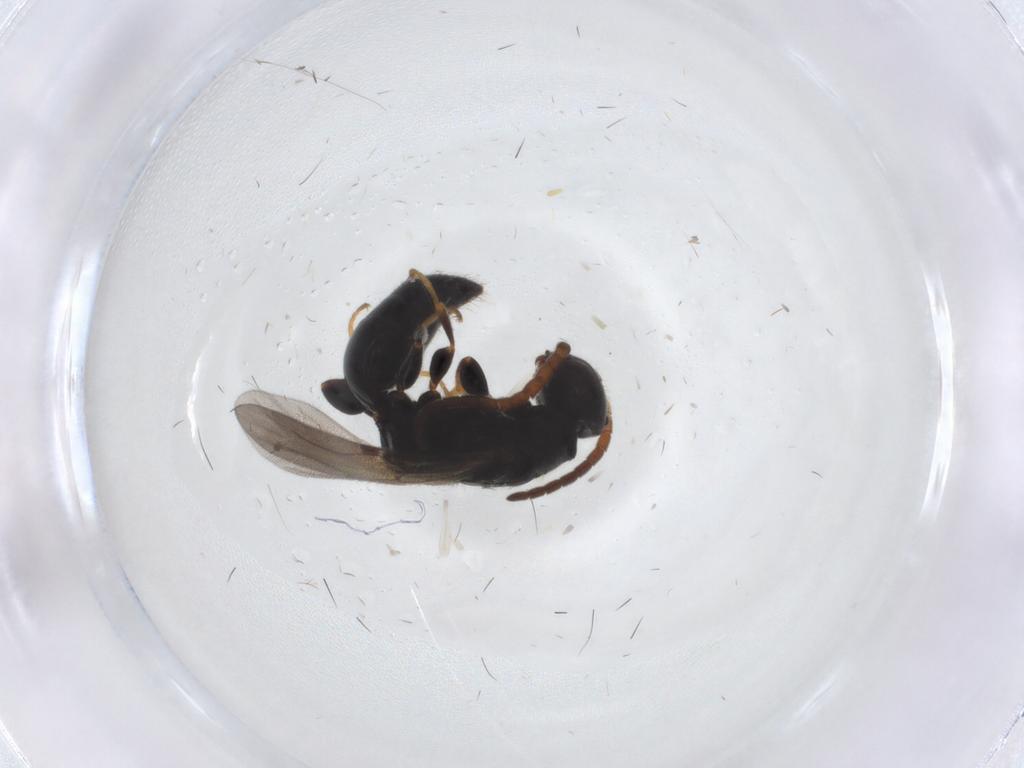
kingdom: Animalia
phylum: Arthropoda
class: Insecta
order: Hymenoptera
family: Bethylidae
